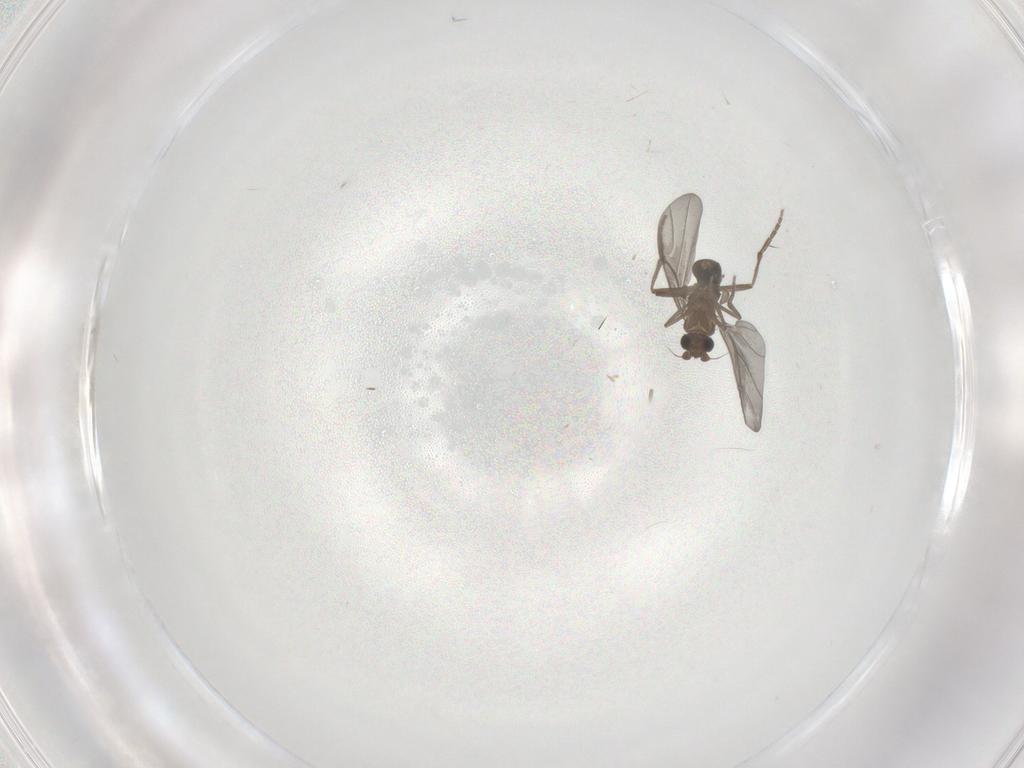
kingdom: Animalia
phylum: Arthropoda
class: Insecta
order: Diptera
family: Phoridae
